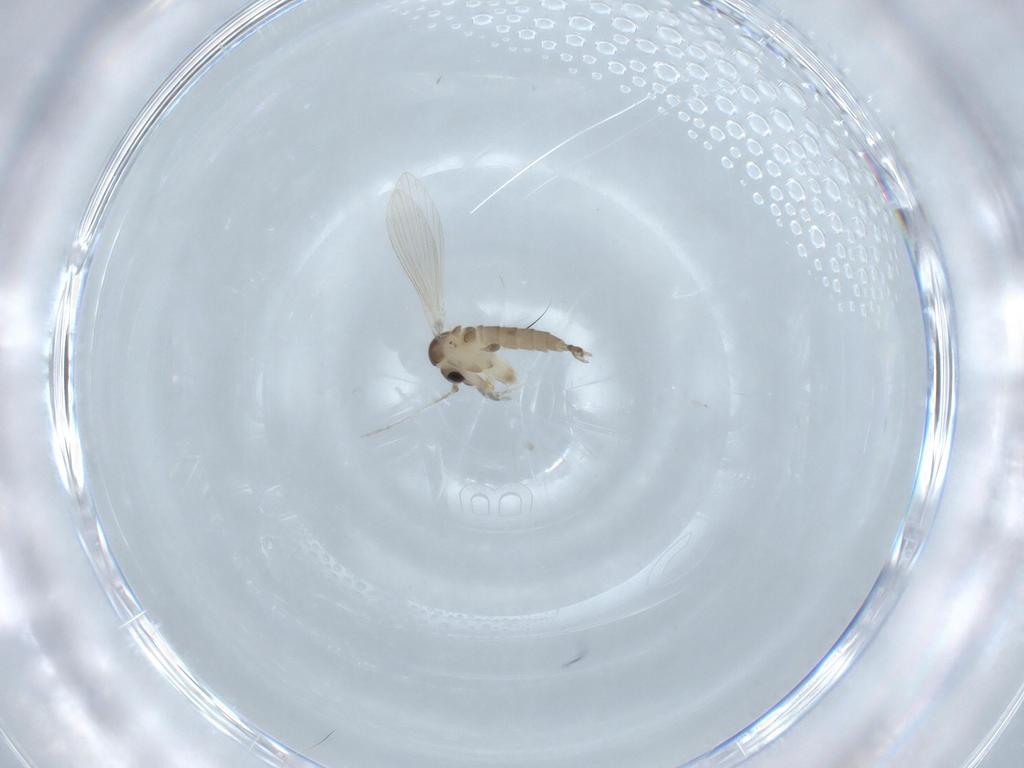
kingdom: Animalia
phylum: Arthropoda
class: Insecta
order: Diptera
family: Psychodidae
